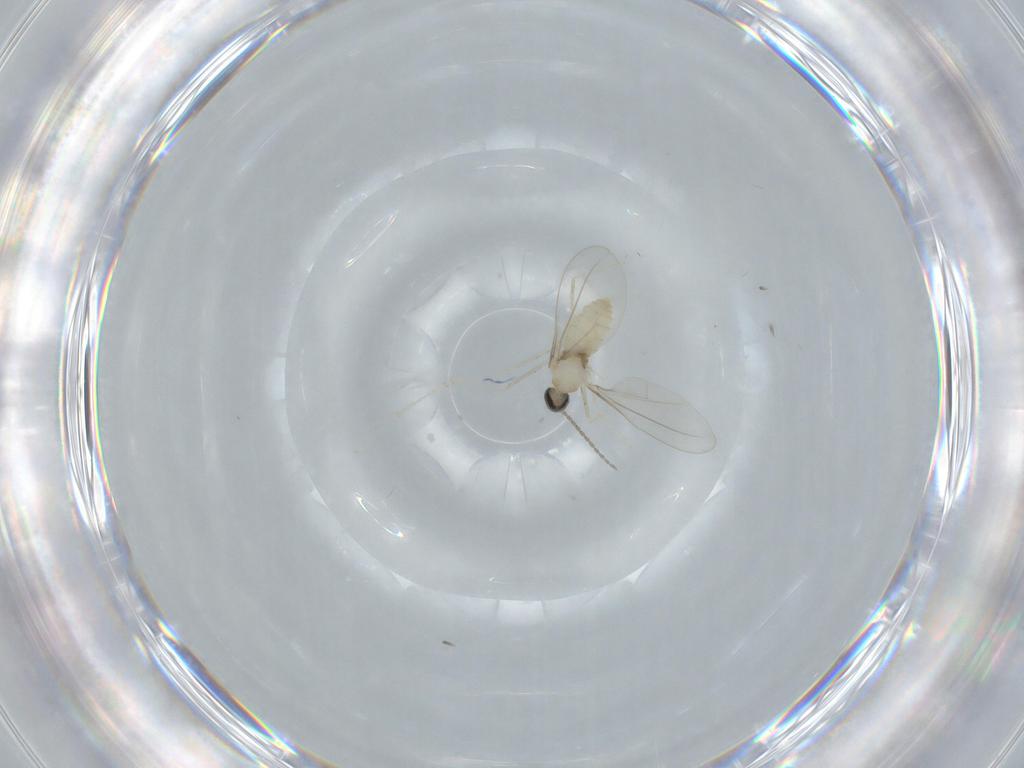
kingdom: Animalia
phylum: Arthropoda
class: Insecta
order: Diptera
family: Cecidomyiidae
